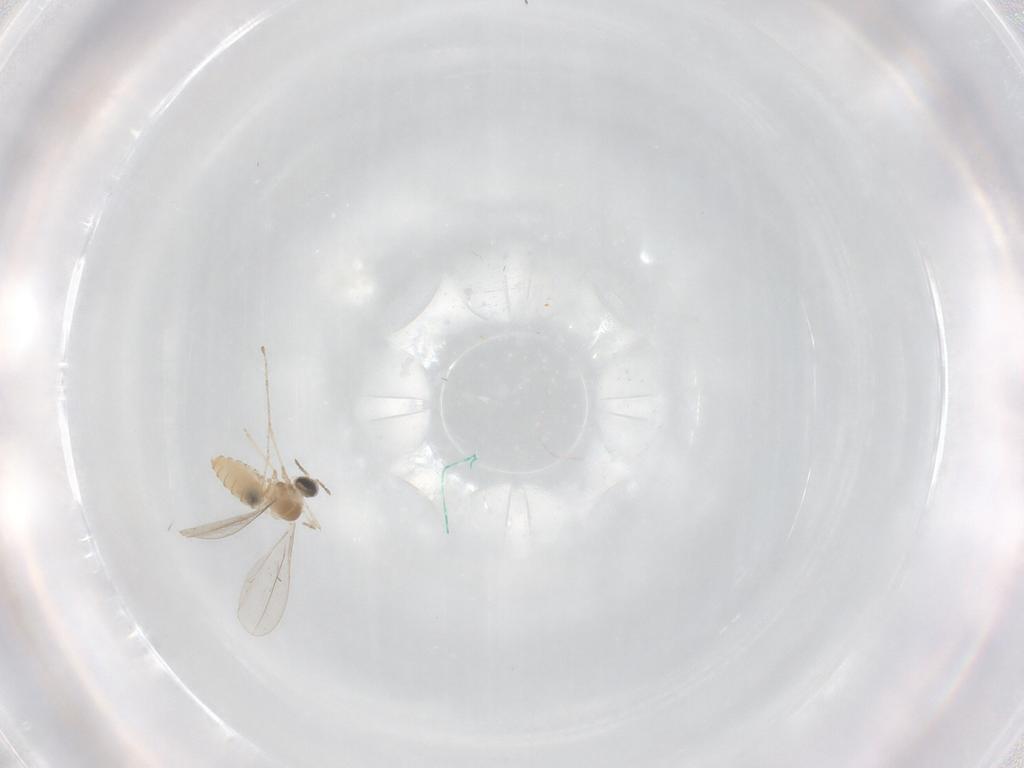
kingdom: Animalia
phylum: Arthropoda
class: Insecta
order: Diptera
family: Cecidomyiidae
